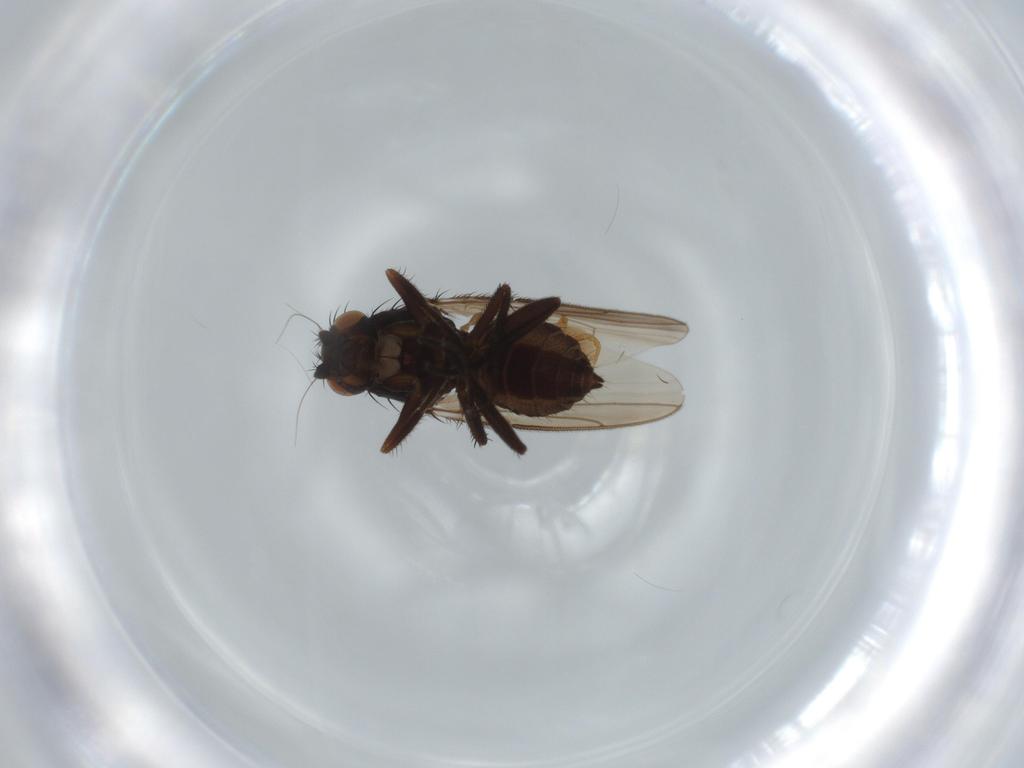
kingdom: Animalia
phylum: Arthropoda
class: Insecta
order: Diptera
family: Sphaeroceridae
